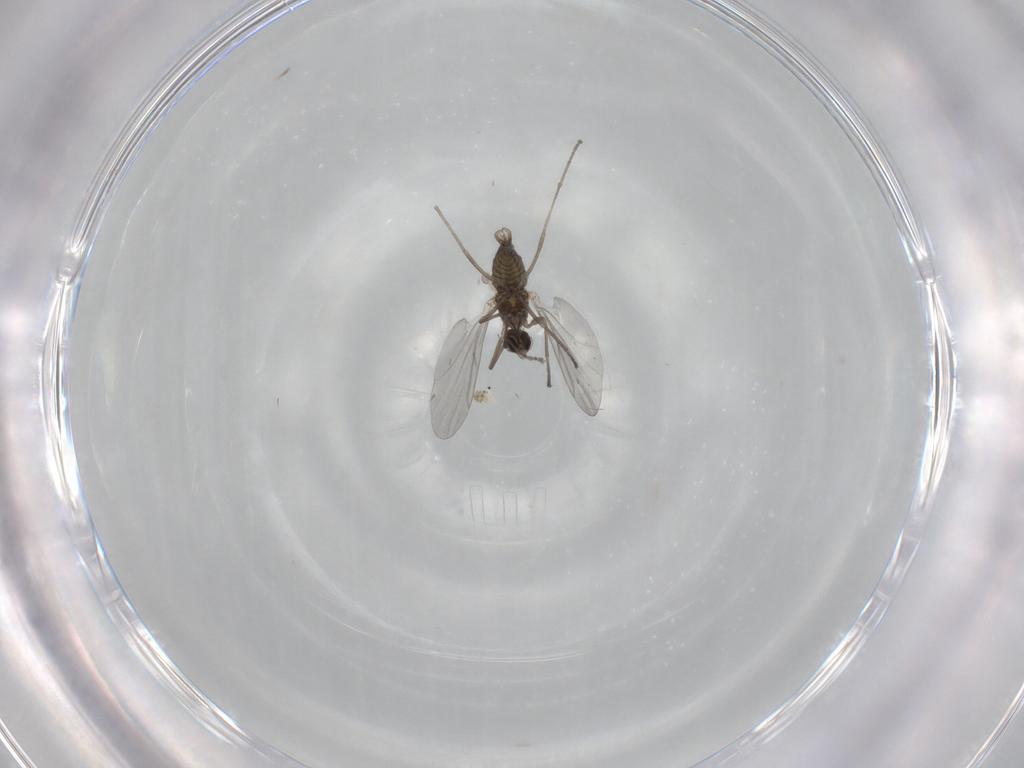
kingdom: Animalia
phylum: Arthropoda
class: Insecta
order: Diptera
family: Cecidomyiidae
